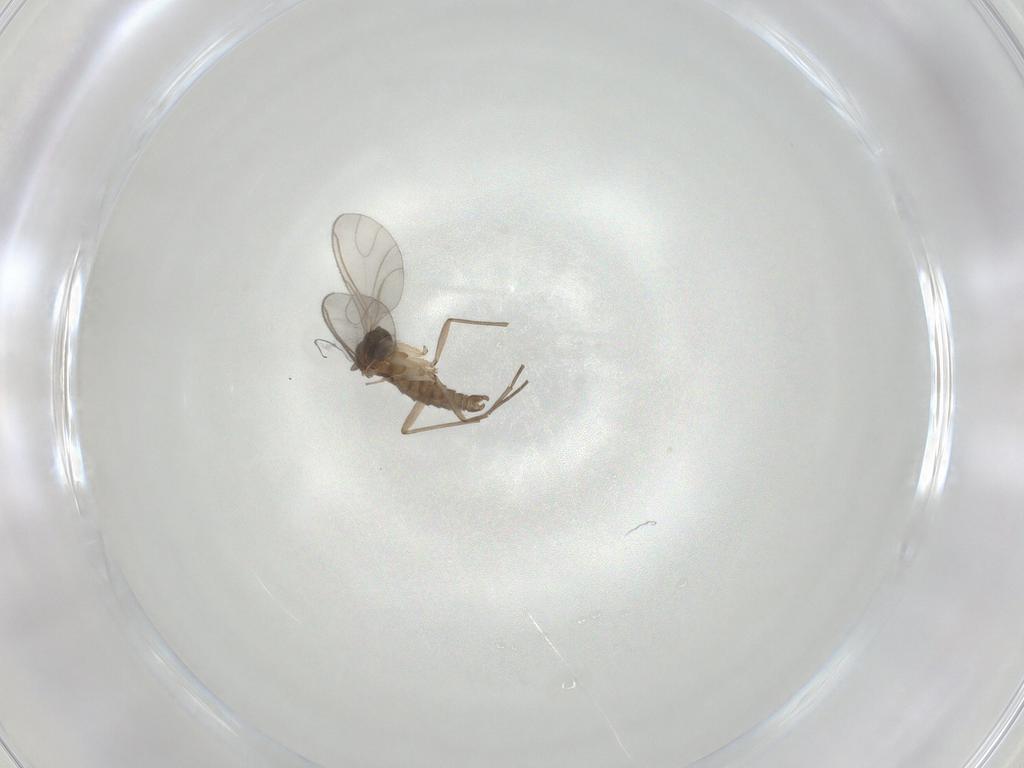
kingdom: Animalia
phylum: Arthropoda
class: Insecta
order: Diptera
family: Sciaridae
